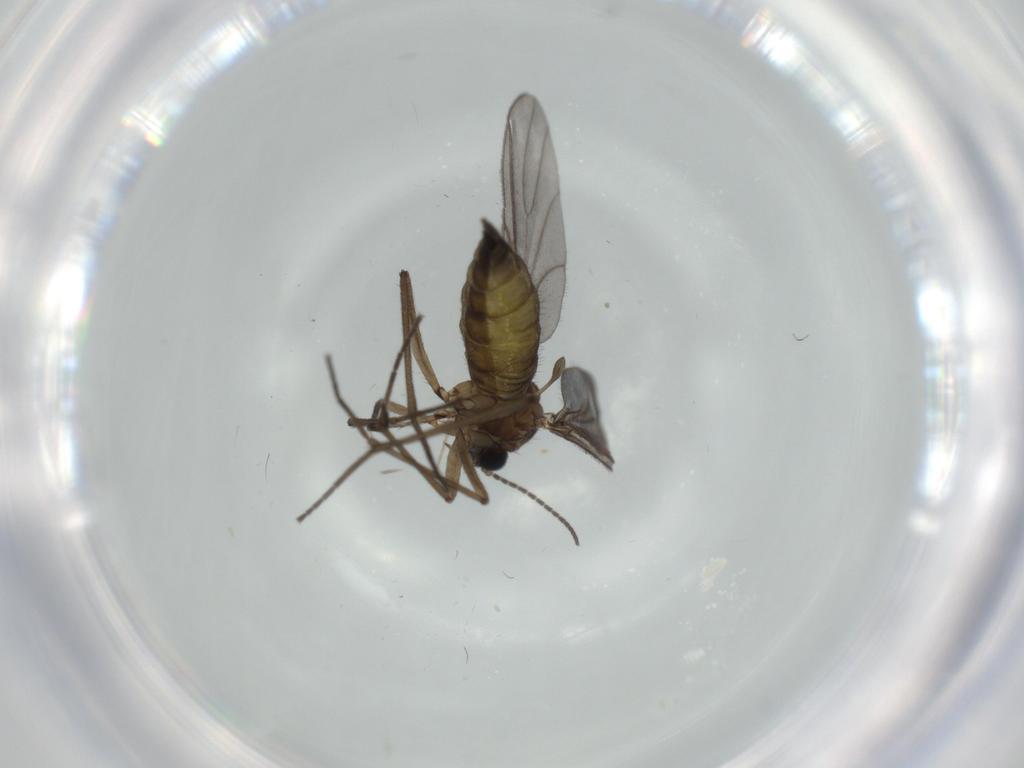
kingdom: Animalia
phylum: Arthropoda
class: Insecta
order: Diptera
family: Sciaridae
